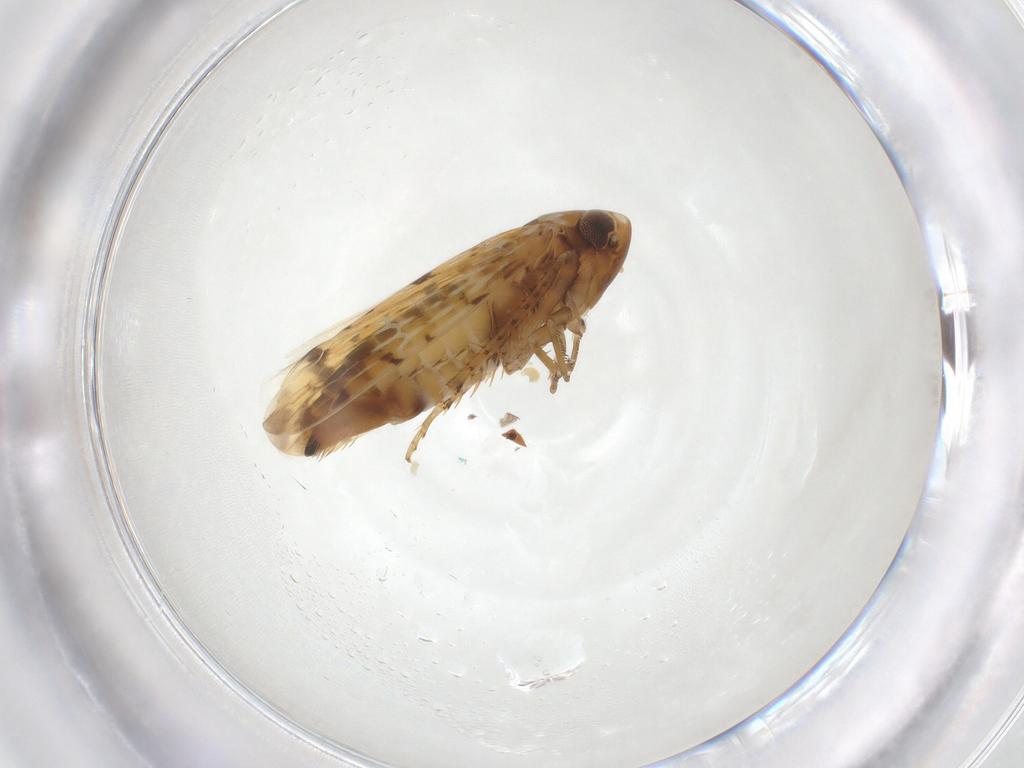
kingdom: Animalia
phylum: Arthropoda
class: Insecta
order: Hemiptera
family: Cicadellidae
